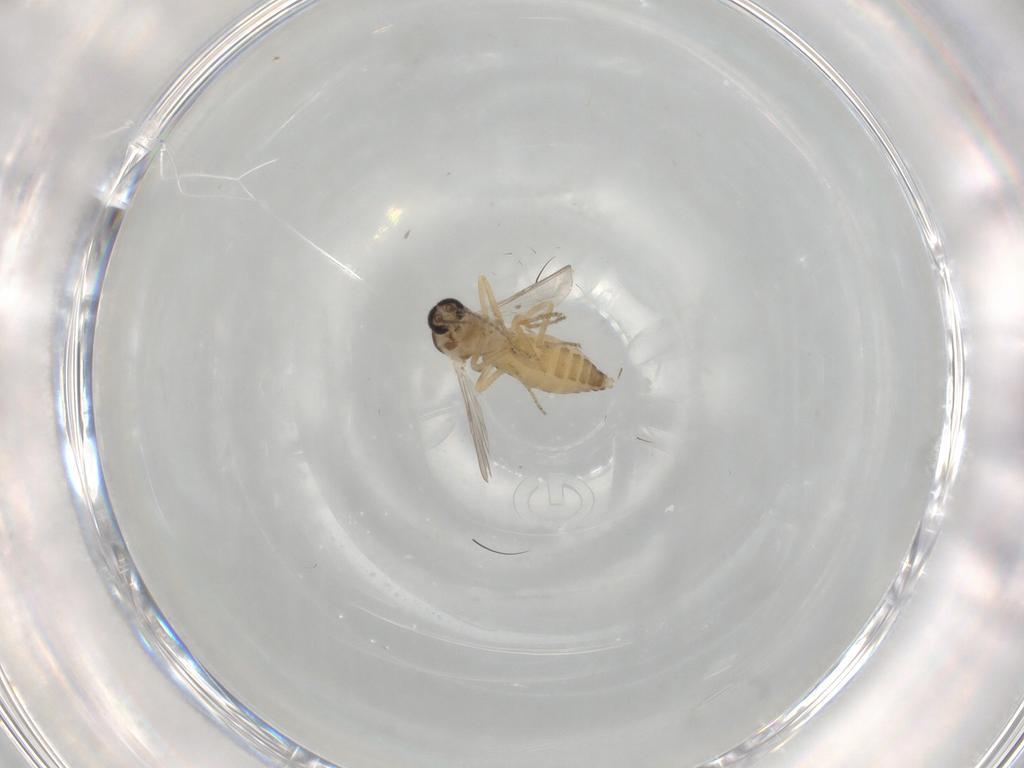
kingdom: Animalia
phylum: Arthropoda
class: Insecta
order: Diptera
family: Ceratopogonidae
